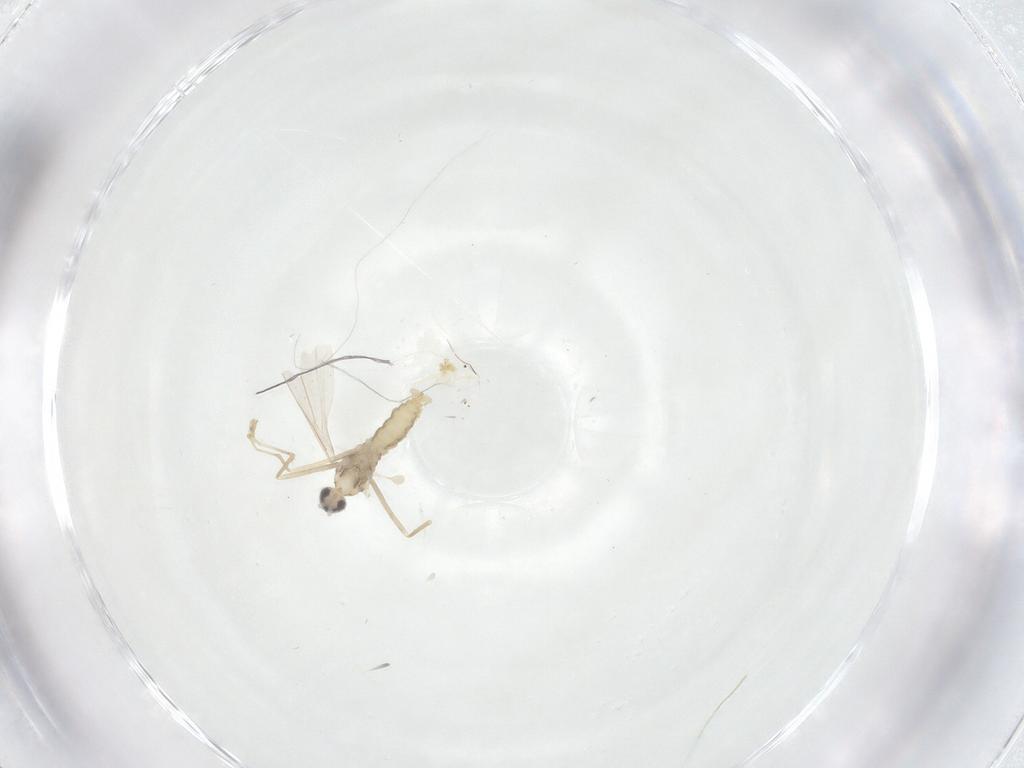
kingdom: Animalia
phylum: Arthropoda
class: Insecta
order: Diptera
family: Cecidomyiidae
